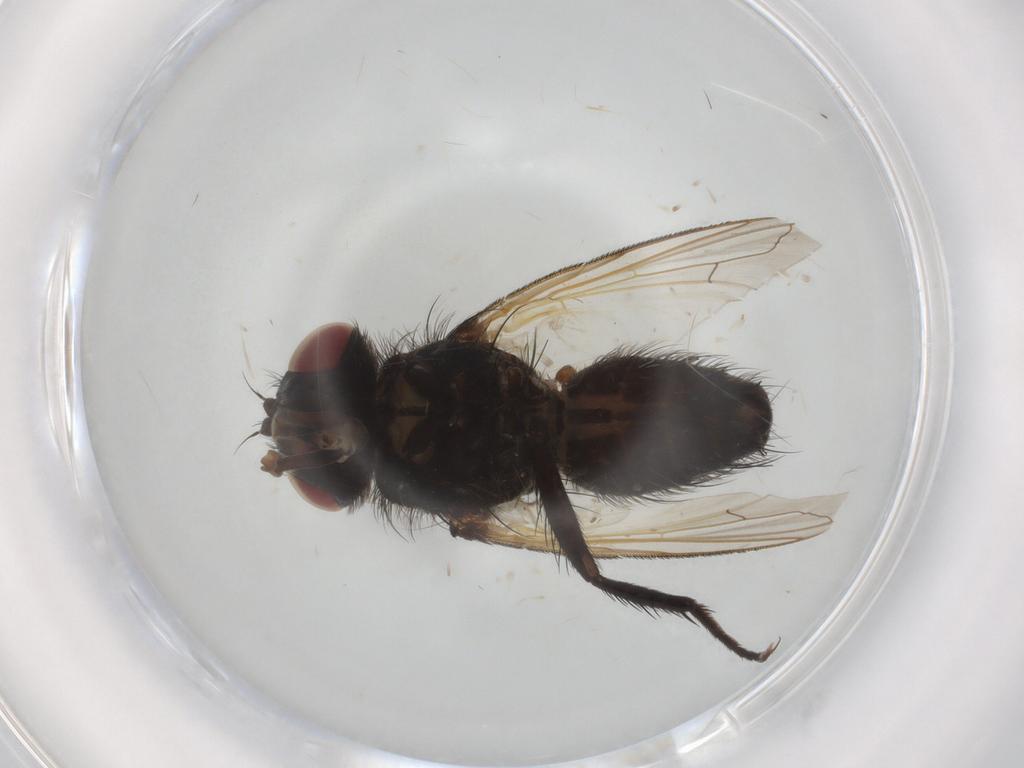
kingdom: Animalia
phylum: Arthropoda
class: Insecta
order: Diptera
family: Tachinidae
